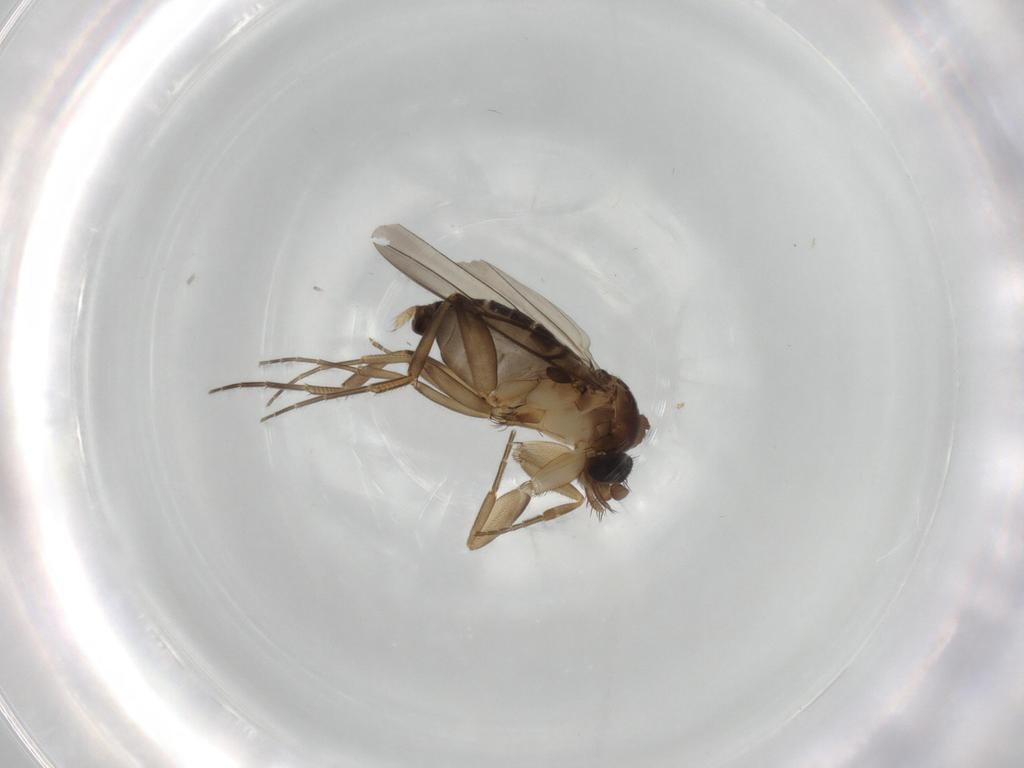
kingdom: Animalia
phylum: Arthropoda
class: Insecta
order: Diptera
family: Phoridae
